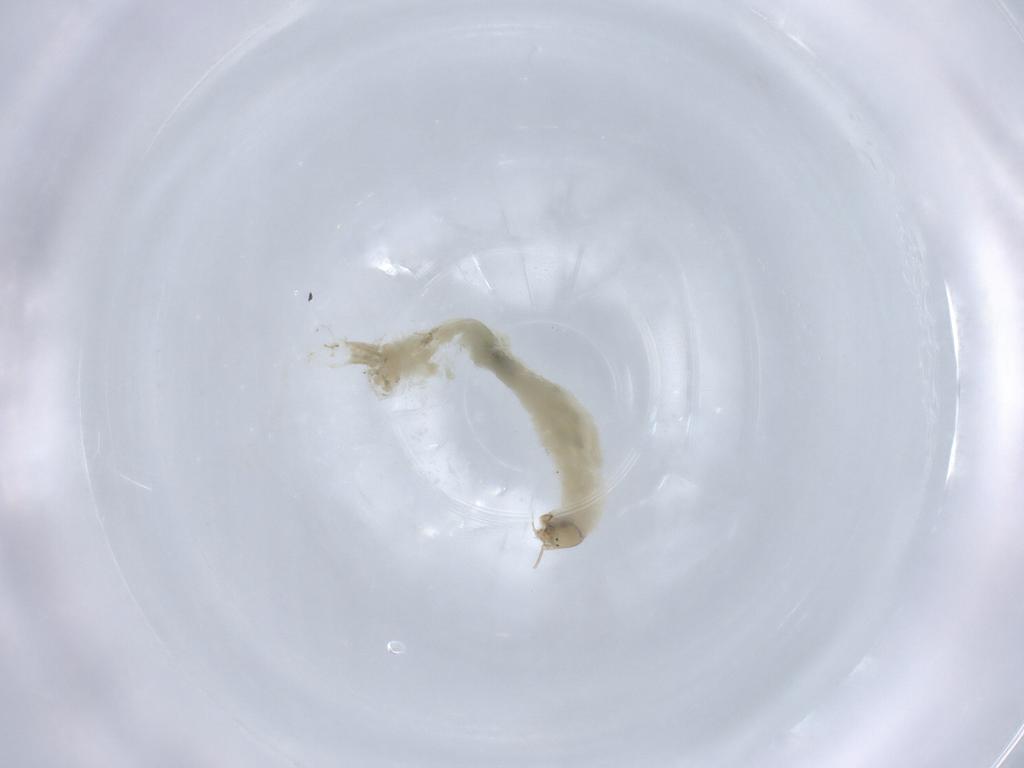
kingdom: Animalia
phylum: Arthropoda
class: Insecta
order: Diptera
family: Chironomidae
